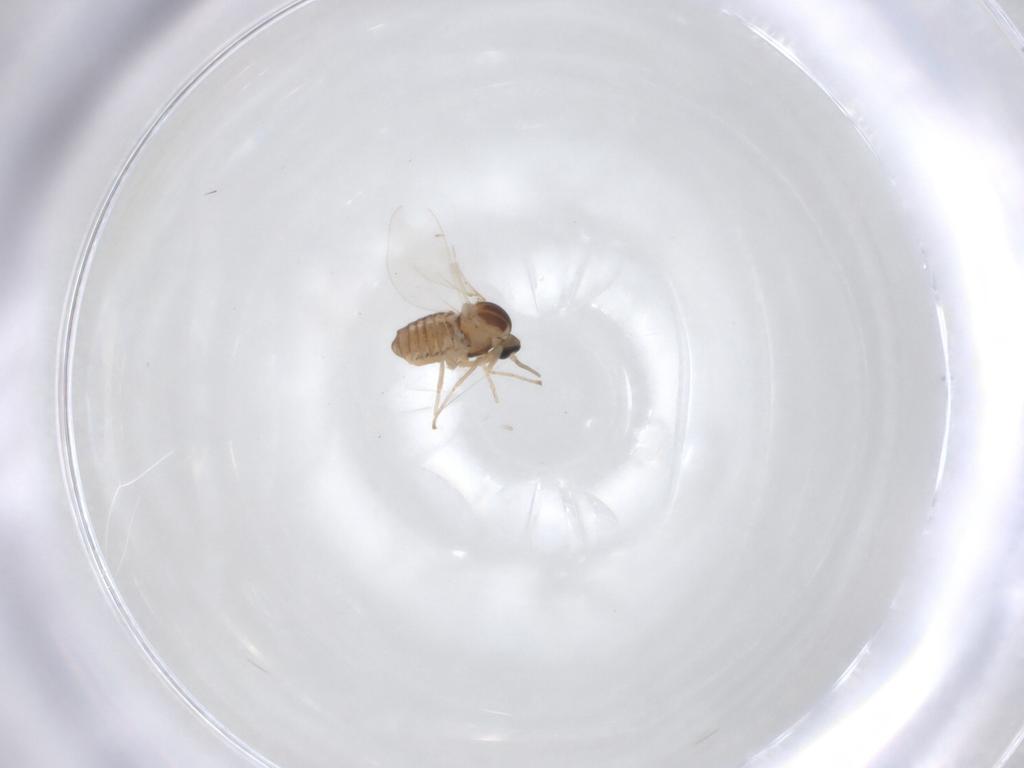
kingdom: Animalia
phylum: Arthropoda
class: Insecta
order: Diptera
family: Cecidomyiidae
